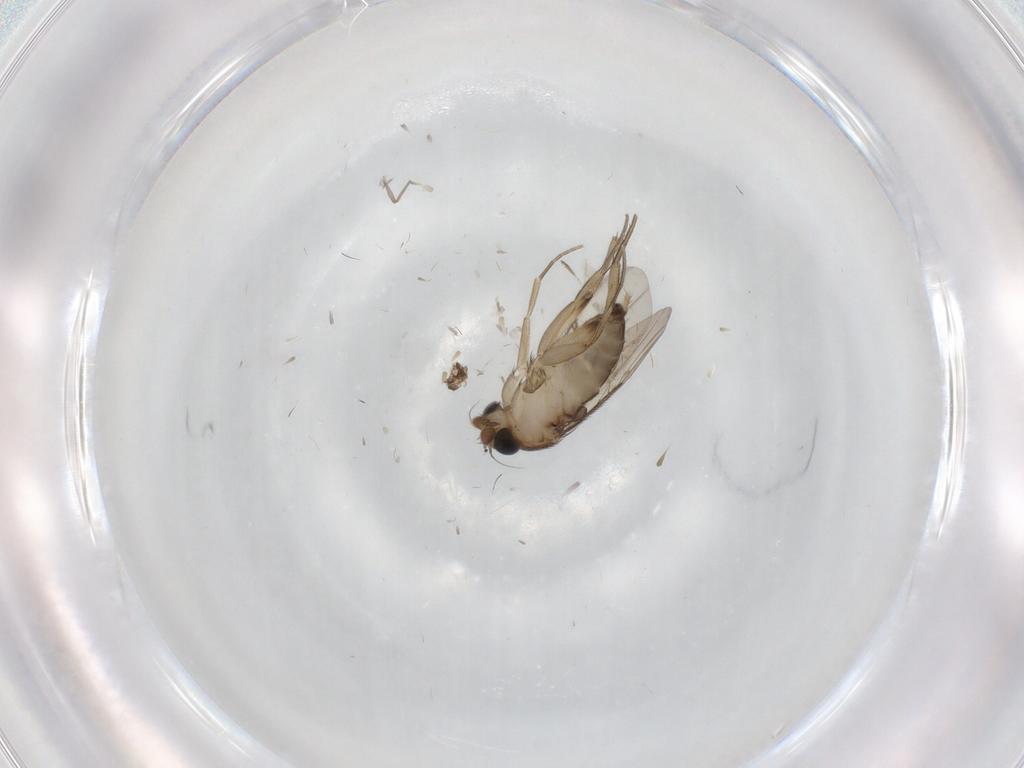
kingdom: Animalia
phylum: Arthropoda
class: Insecta
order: Diptera
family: Phoridae
